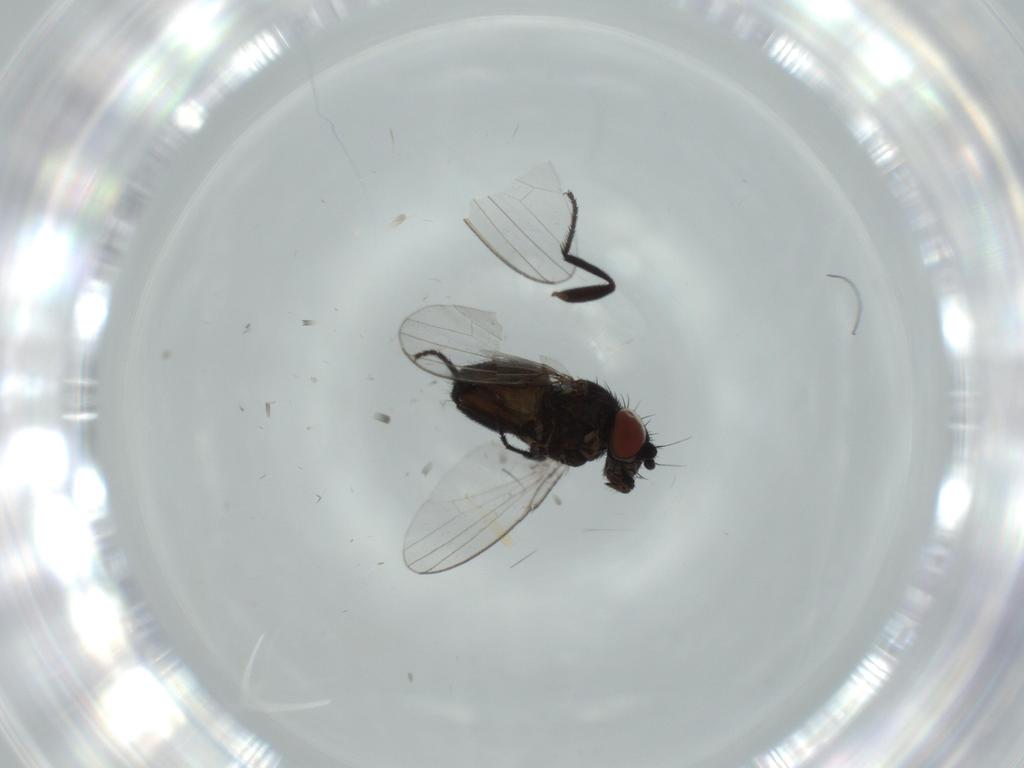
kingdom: Animalia
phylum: Arthropoda
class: Insecta
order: Diptera
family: Milichiidae
